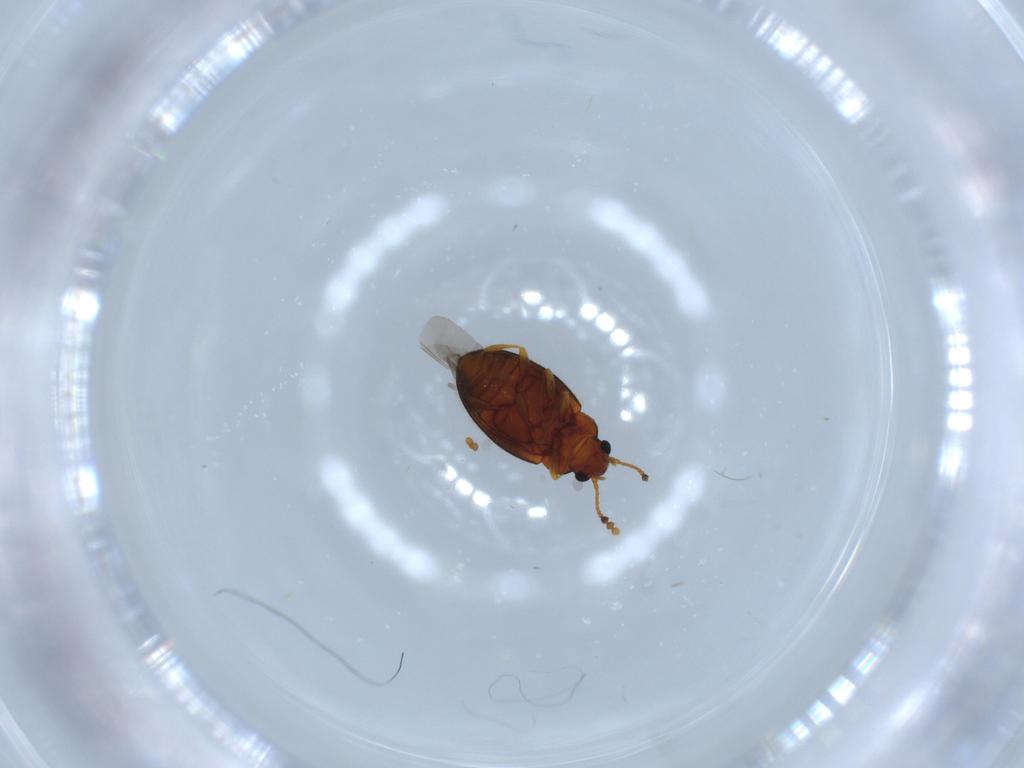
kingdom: Animalia
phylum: Arthropoda
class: Insecta
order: Coleoptera
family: Erotylidae
